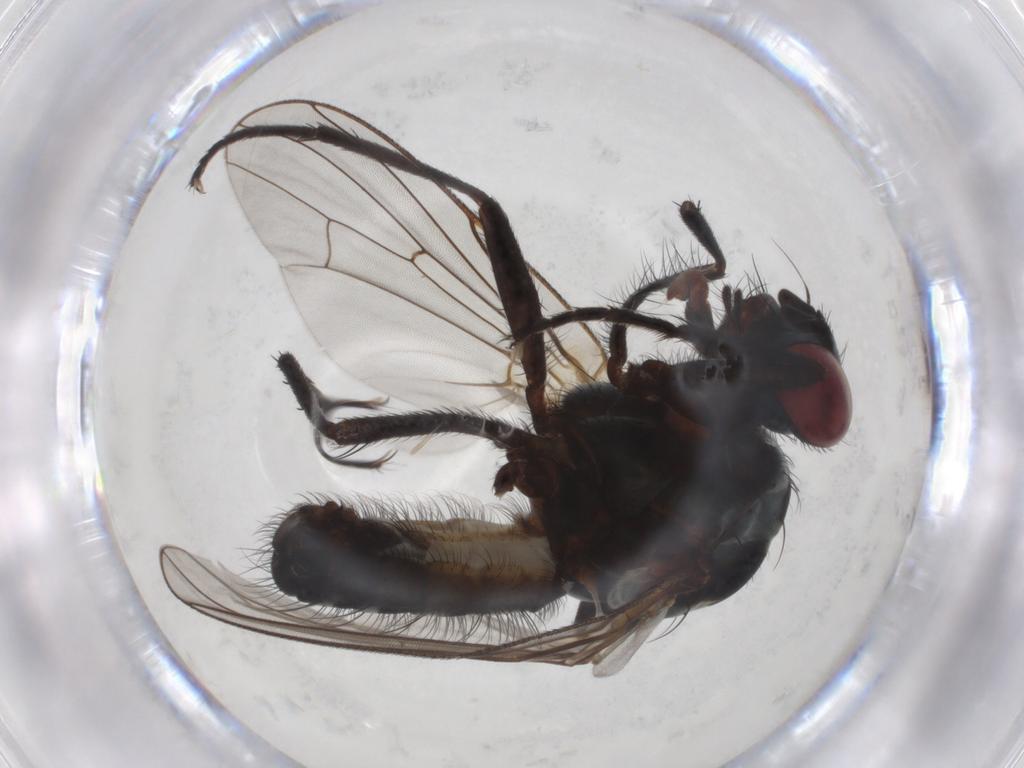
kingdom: Animalia
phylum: Arthropoda
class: Insecta
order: Diptera
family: Anthomyiidae
